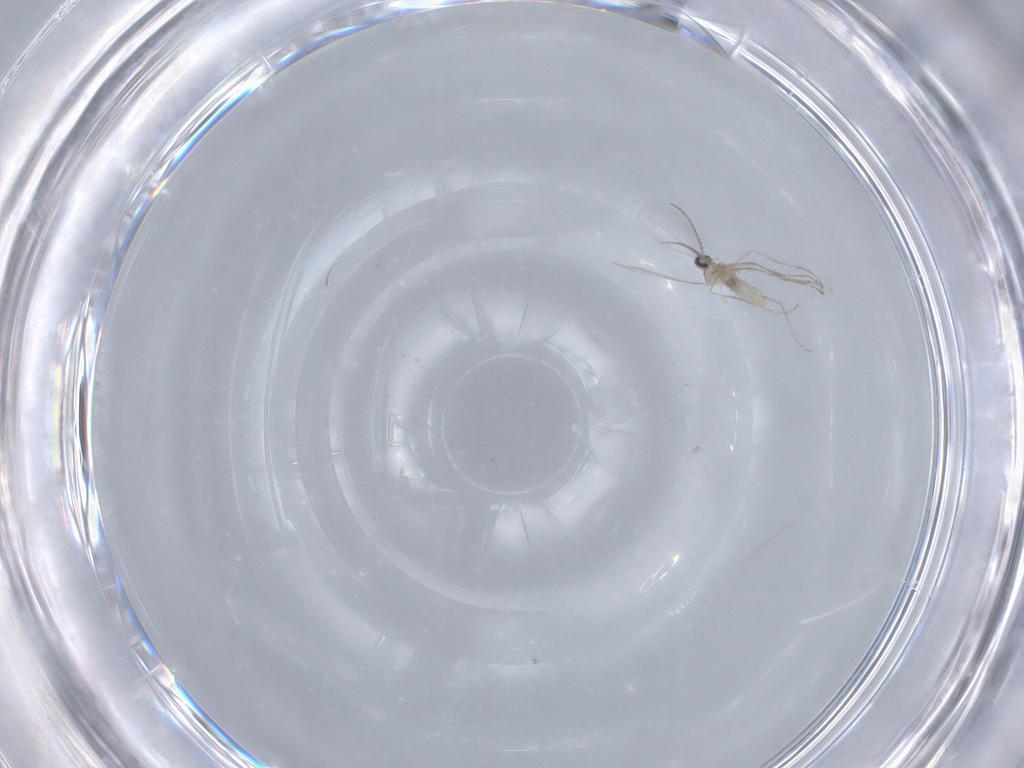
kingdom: Animalia
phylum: Arthropoda
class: Insecta
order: Diptera
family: Cecidomyiidae
